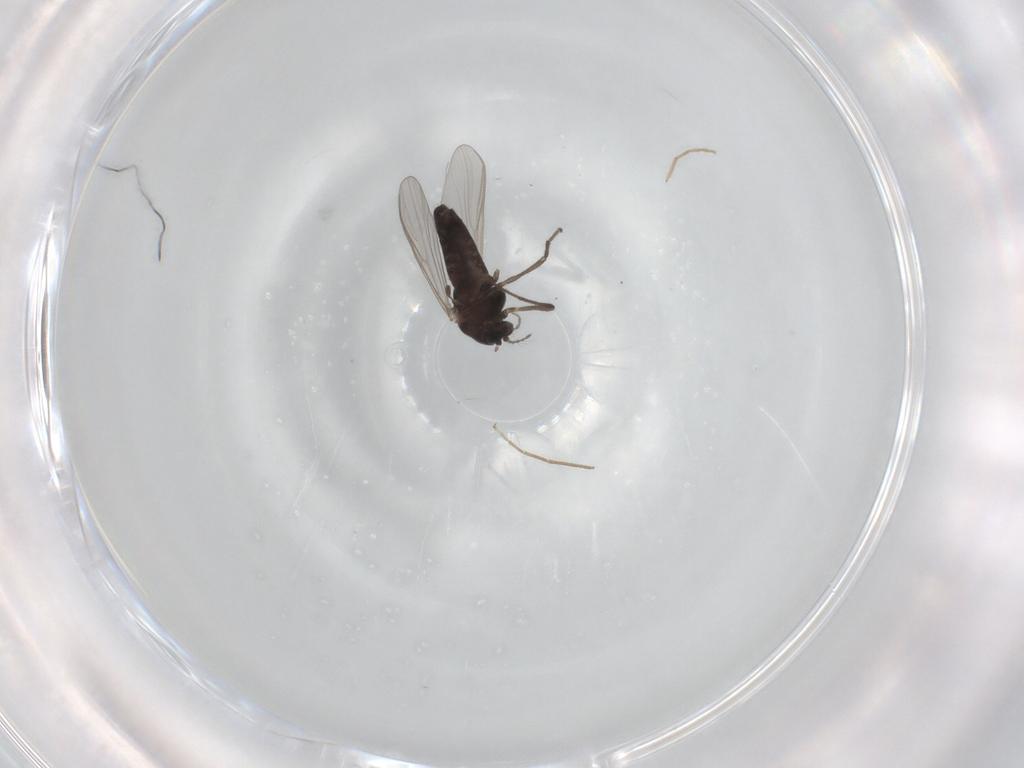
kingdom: Animalia
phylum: Arthropoda
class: Insecta
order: Diptera
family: Chironomidae
